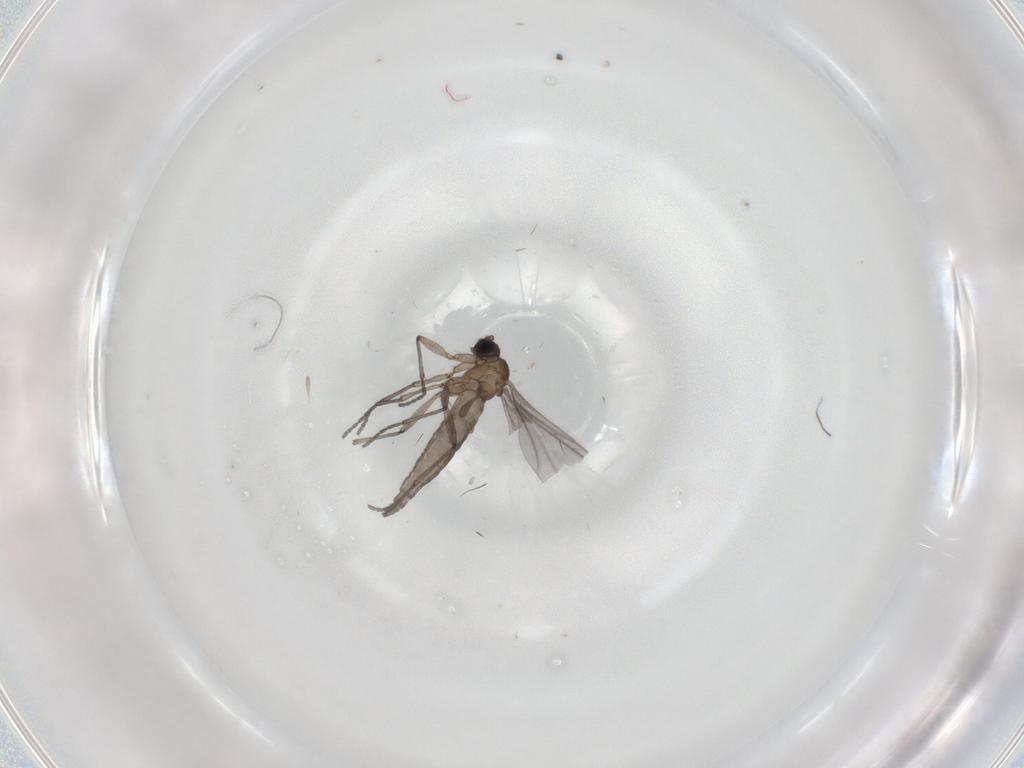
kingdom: Animalia
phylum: Arthropoda
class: Insecta
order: Diptera
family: Sciaridae
